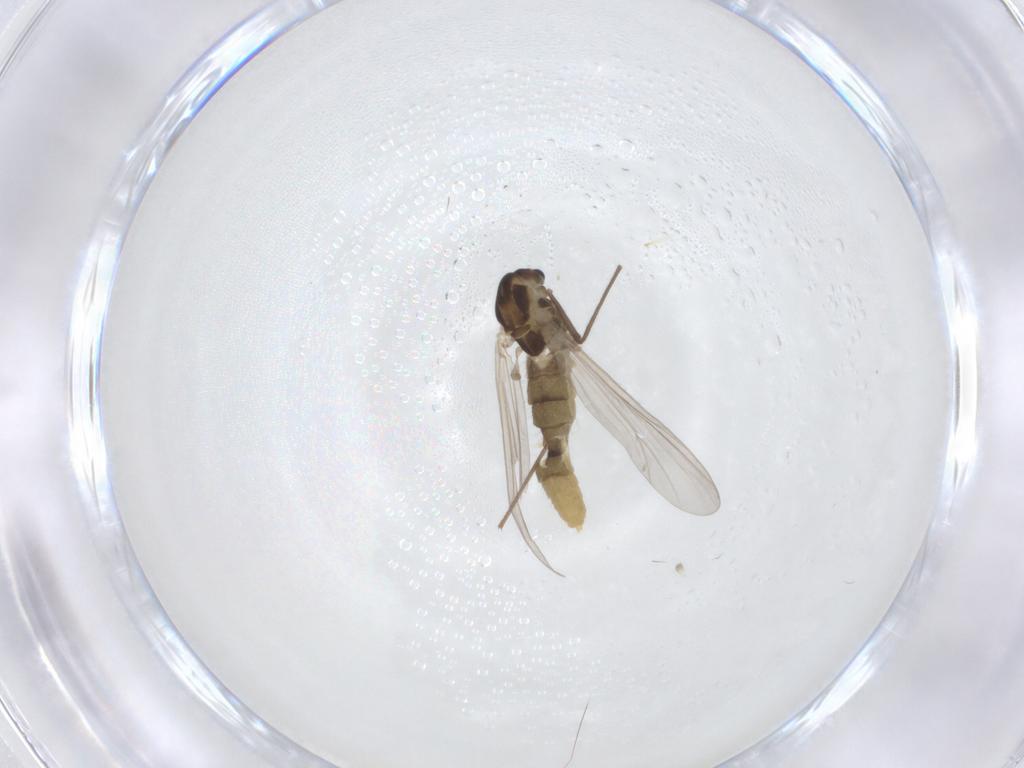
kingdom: Animalia
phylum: Arthropoda
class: Insecta
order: Diptera
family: Chironomidae
